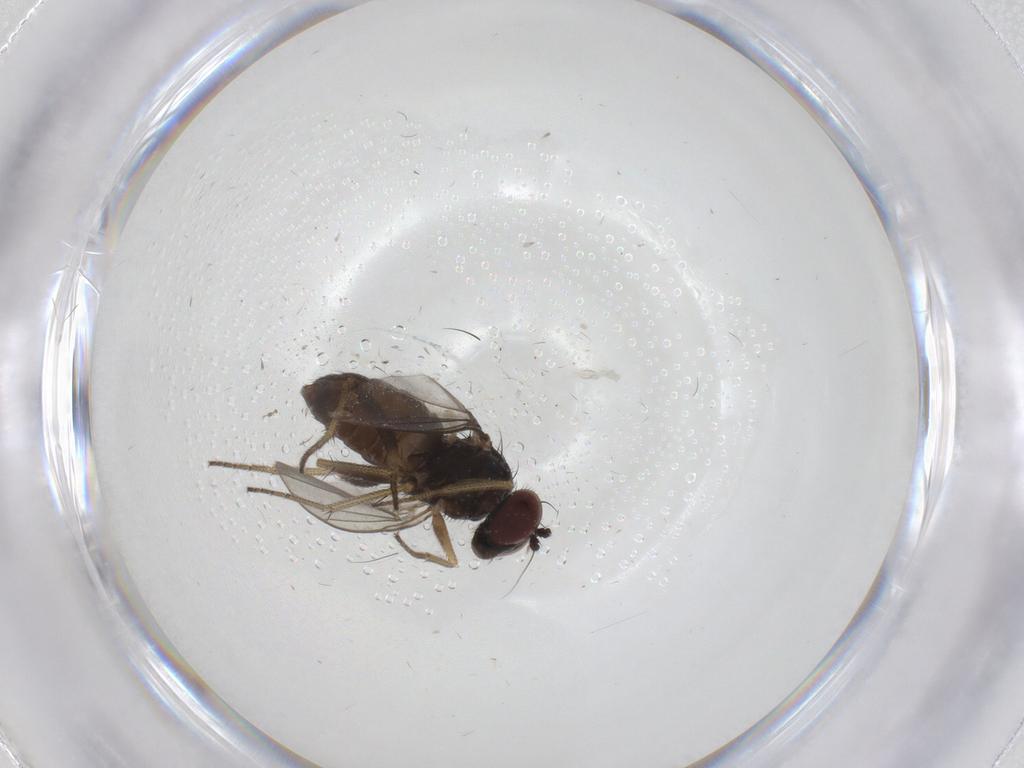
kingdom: Animalia
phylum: Arthropoda
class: Insecta
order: Diptera
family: Dolichopodidae
